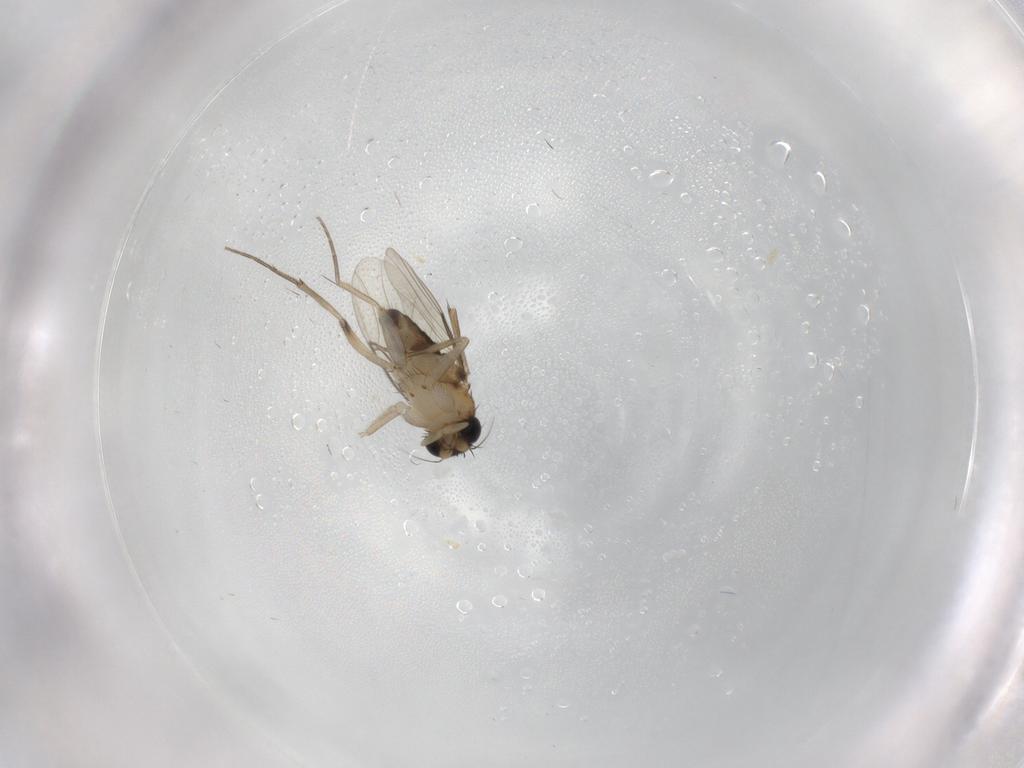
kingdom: Animalia
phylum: Arthropoda
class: Insecta
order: Diptera
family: Phoridae
